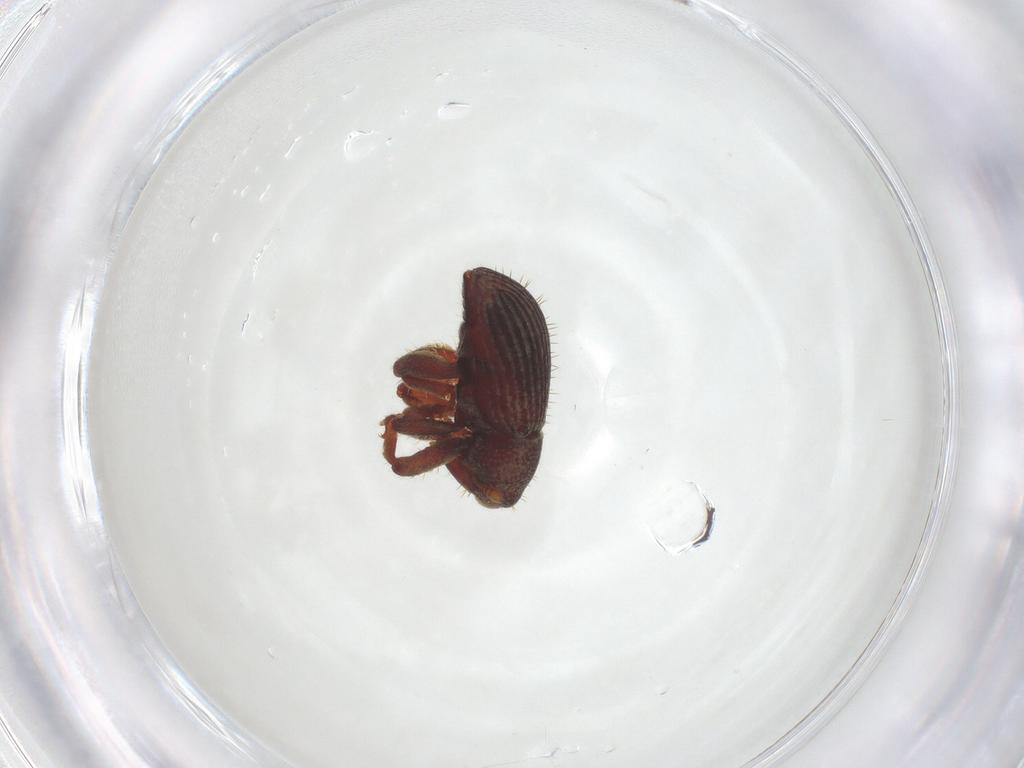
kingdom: Animalia
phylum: Arthropoda
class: Insecta
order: Coleoptera
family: Curculionidae
